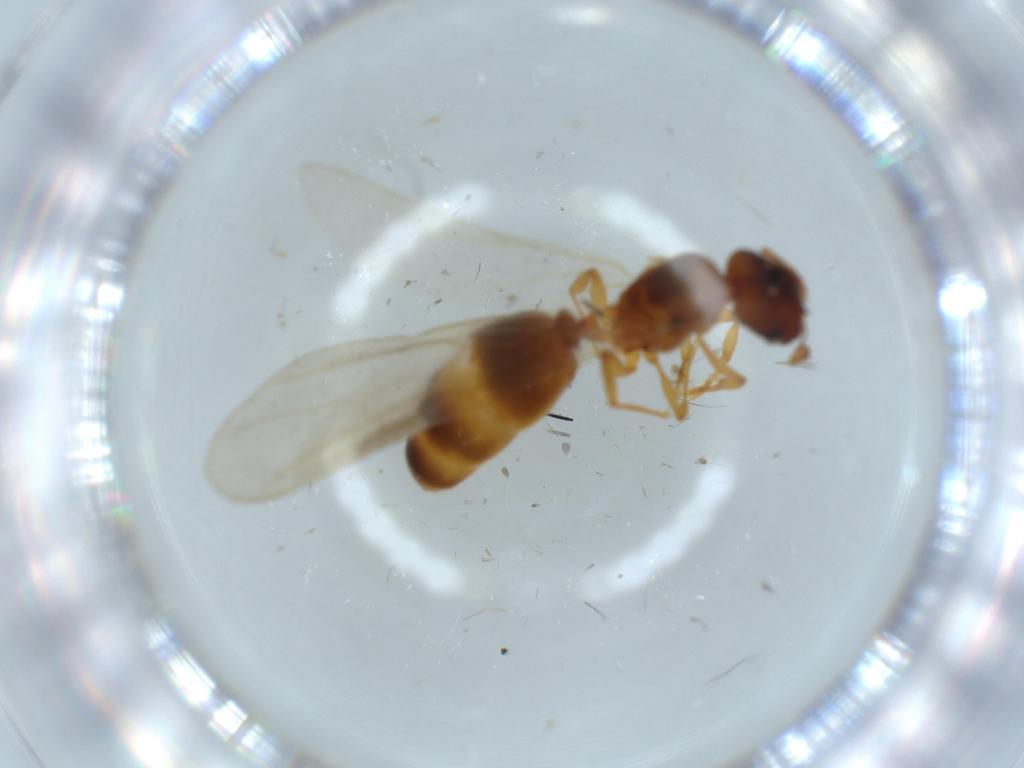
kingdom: Animalia
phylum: Arthropoda
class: Insecta
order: Hymenoptera
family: Formicidae
